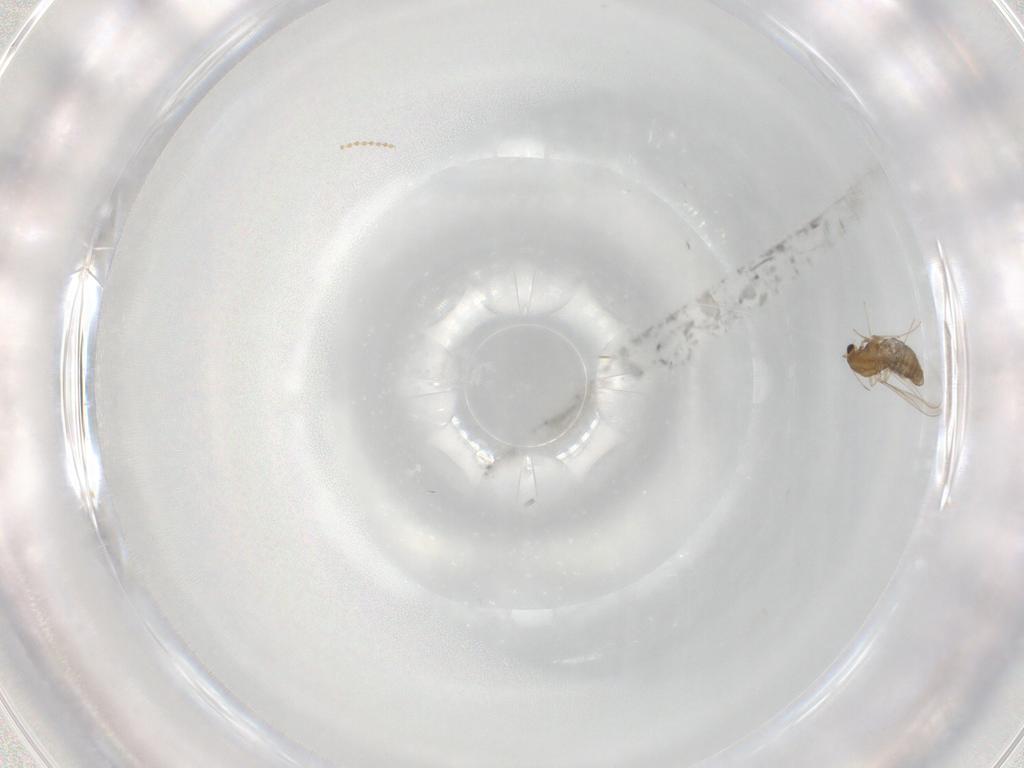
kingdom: Animalia
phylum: Arthropoda
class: Insecta
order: Diptera
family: Chironomidae
